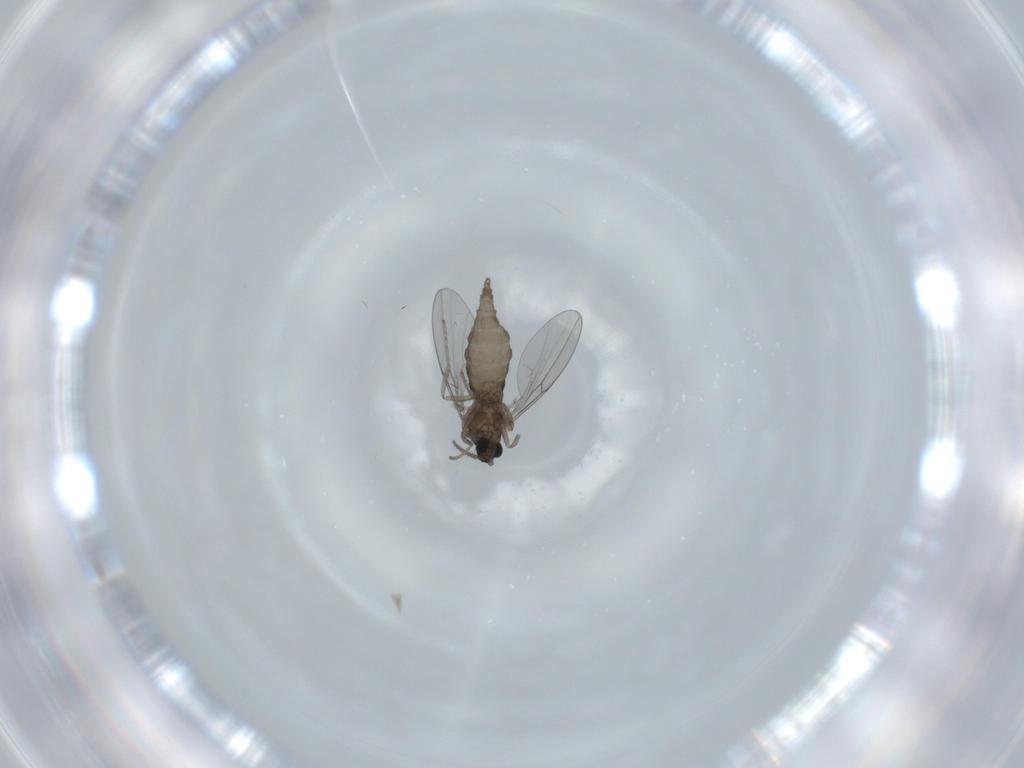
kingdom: Animalia
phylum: Arthropoda
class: Insecta
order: Diptera
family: Cecidomyiidae
